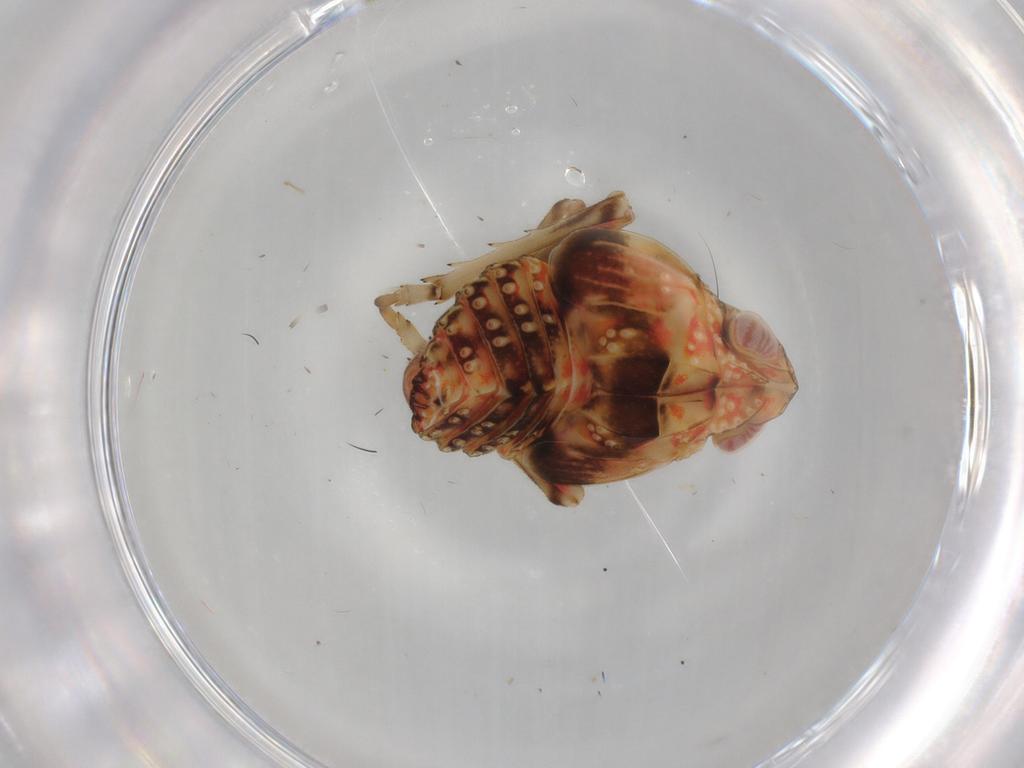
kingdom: Animalia
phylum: Arthropoda
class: Insecta
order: Hemiptera
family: Tropiduchidae
